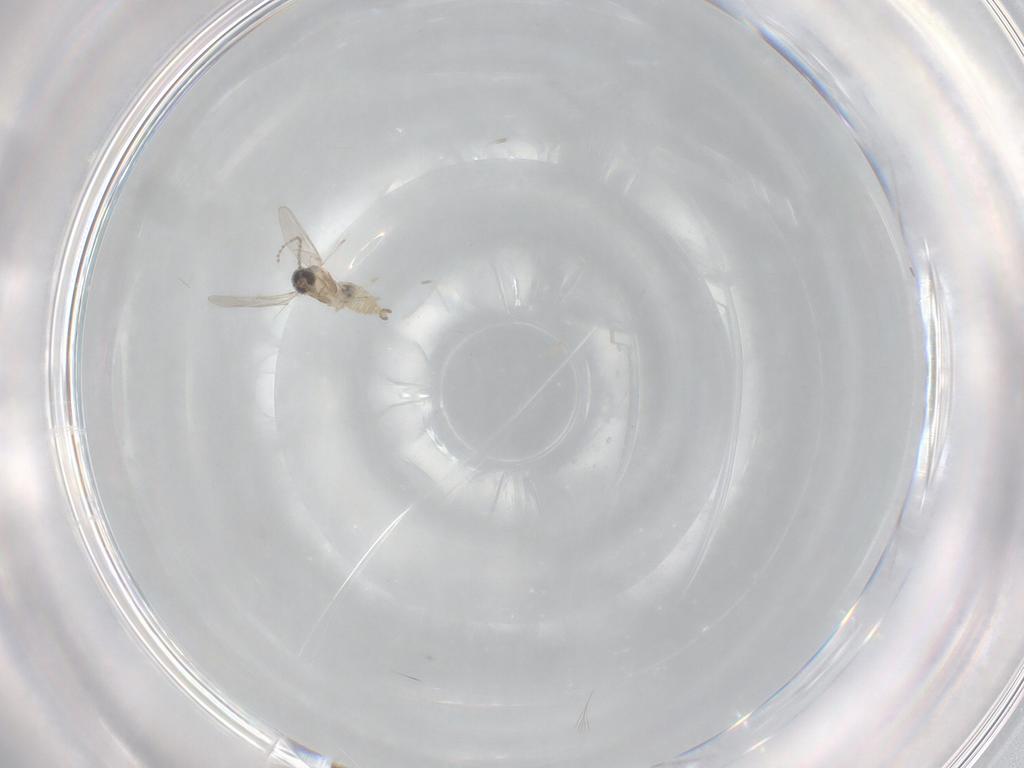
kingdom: Animalia
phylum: Arthropoda
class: Insecta
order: Diptera
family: Cecidomyiidae
